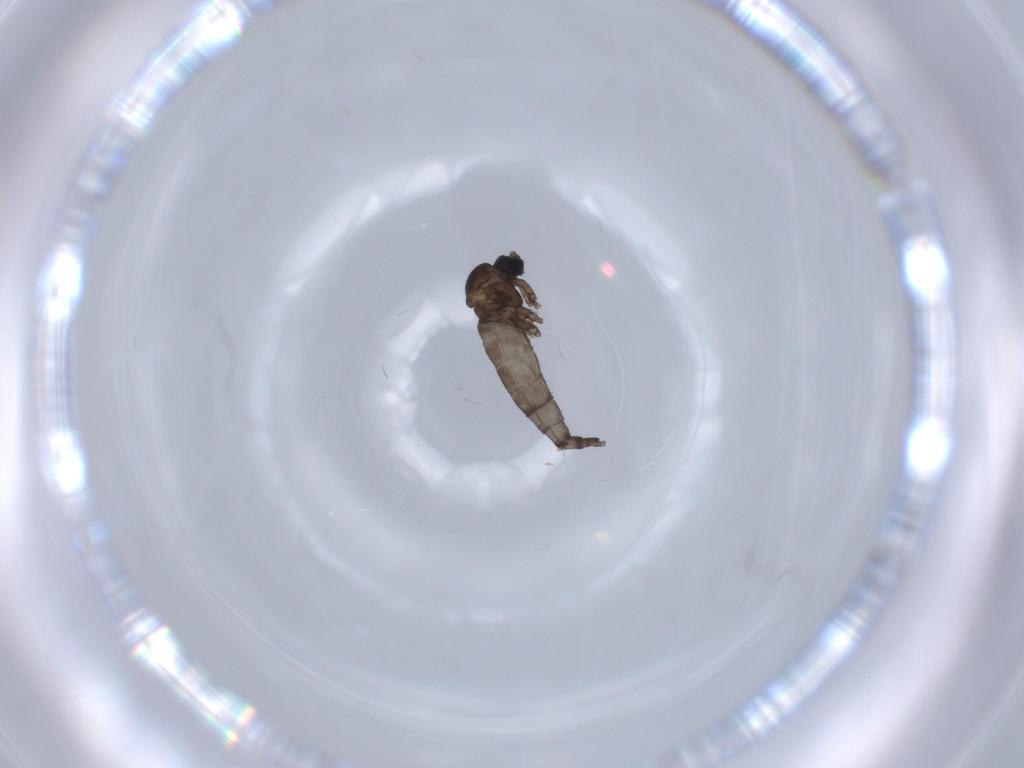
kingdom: Animalia
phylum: Arthropoda
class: Insecta
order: Diptera
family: Sciaridae
